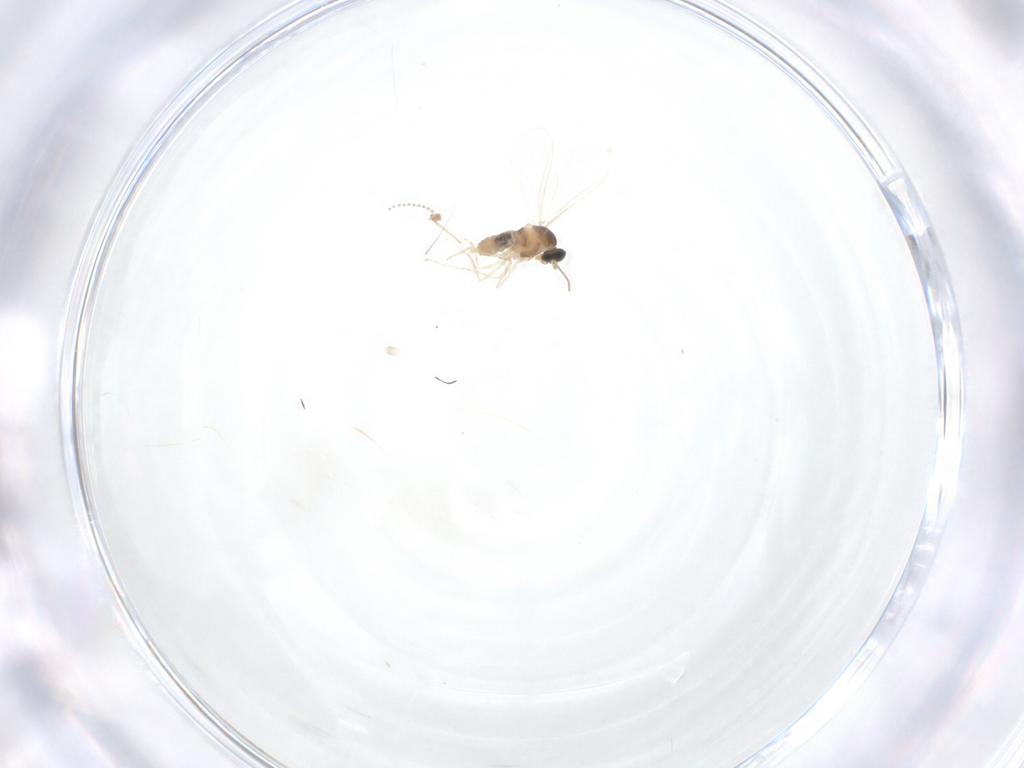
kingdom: Animalia
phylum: Arthropoda
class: Insecta
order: Diptera
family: Cecidomyiidae
